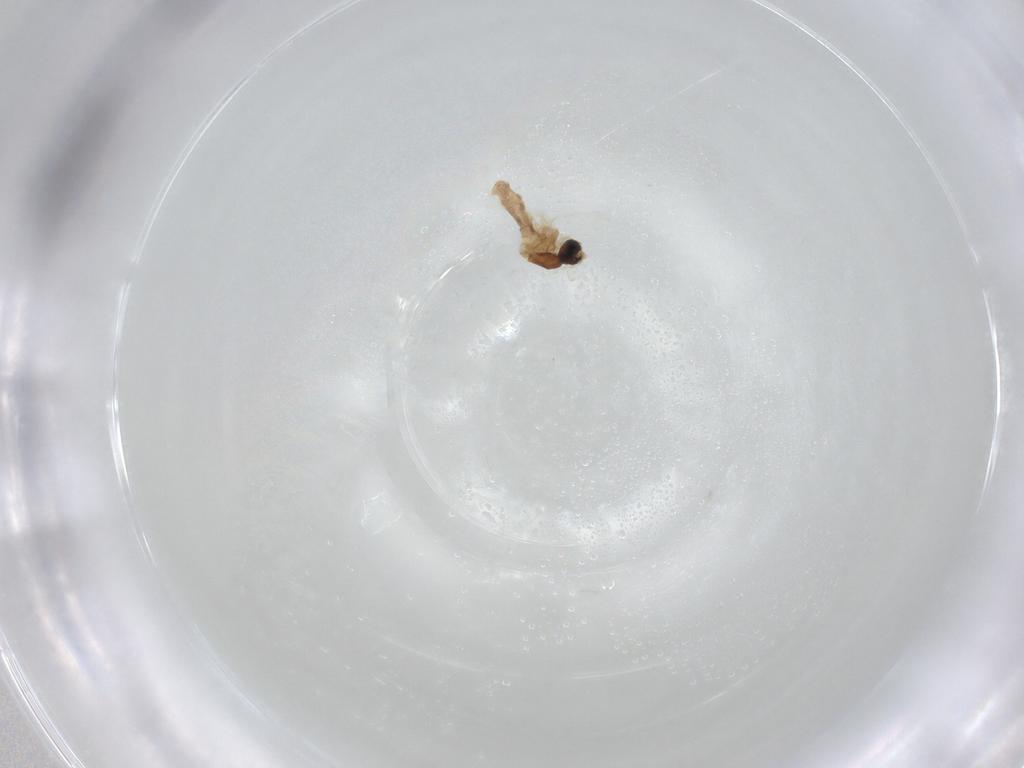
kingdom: Animalia
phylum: Arthropoda
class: Insecta
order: Diptera
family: Cecidomyiidae
